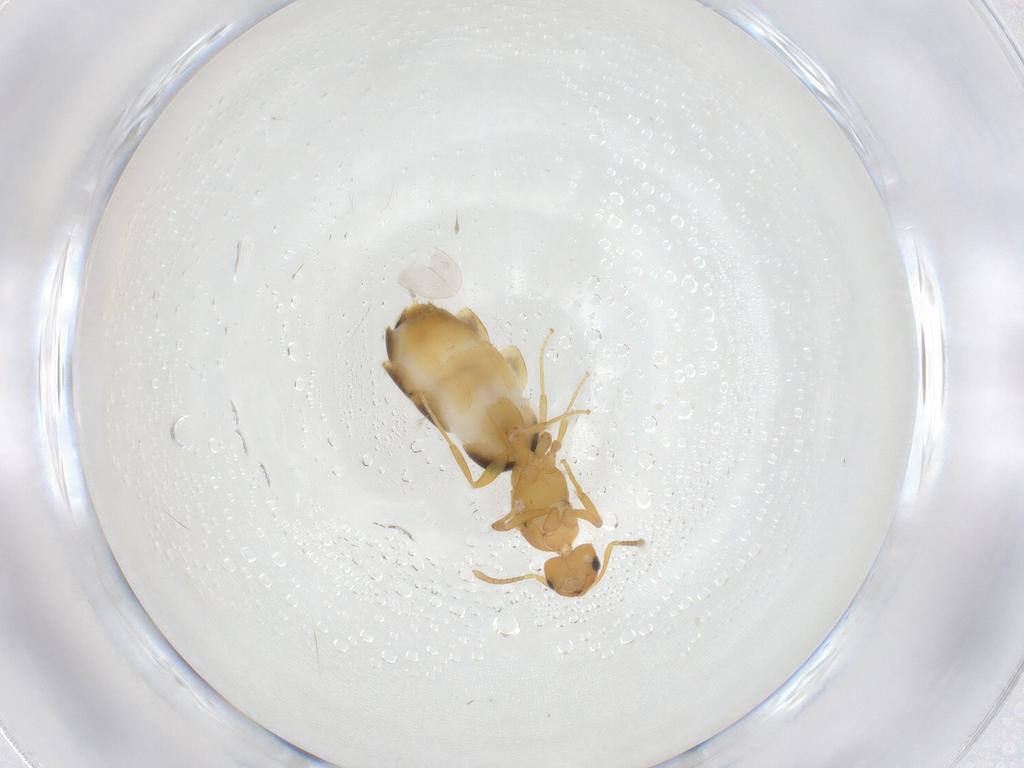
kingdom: Animalia
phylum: Arthropoda
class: Insecta
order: Hymenoptera
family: Formicidae
